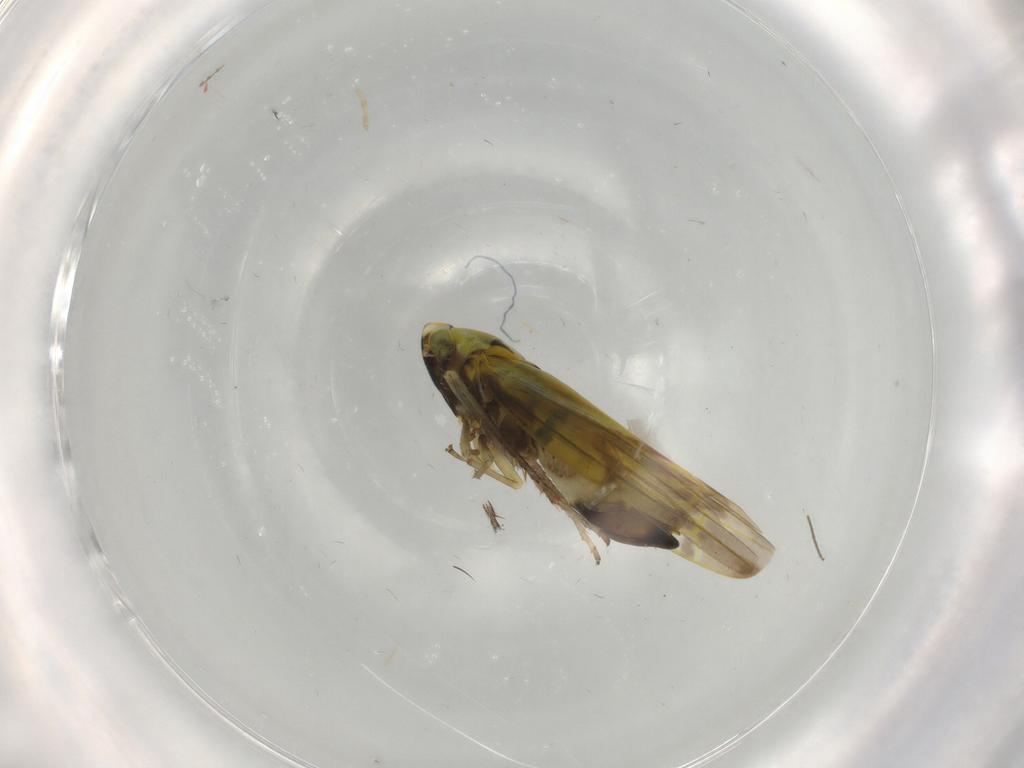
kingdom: Animalia
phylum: Arthropoda
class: Insecta
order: Hemiptera
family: Cicadellidae
